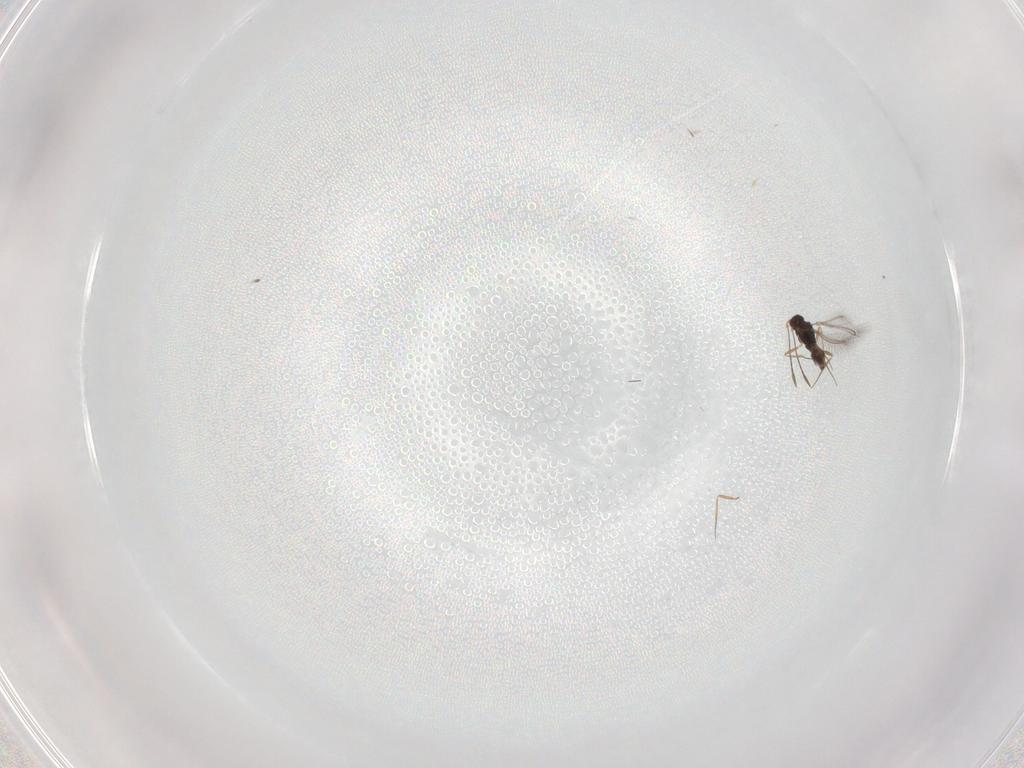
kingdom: Animalia
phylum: Arthropoda
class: Insecta
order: Hymenoptera
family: Mymaridae
